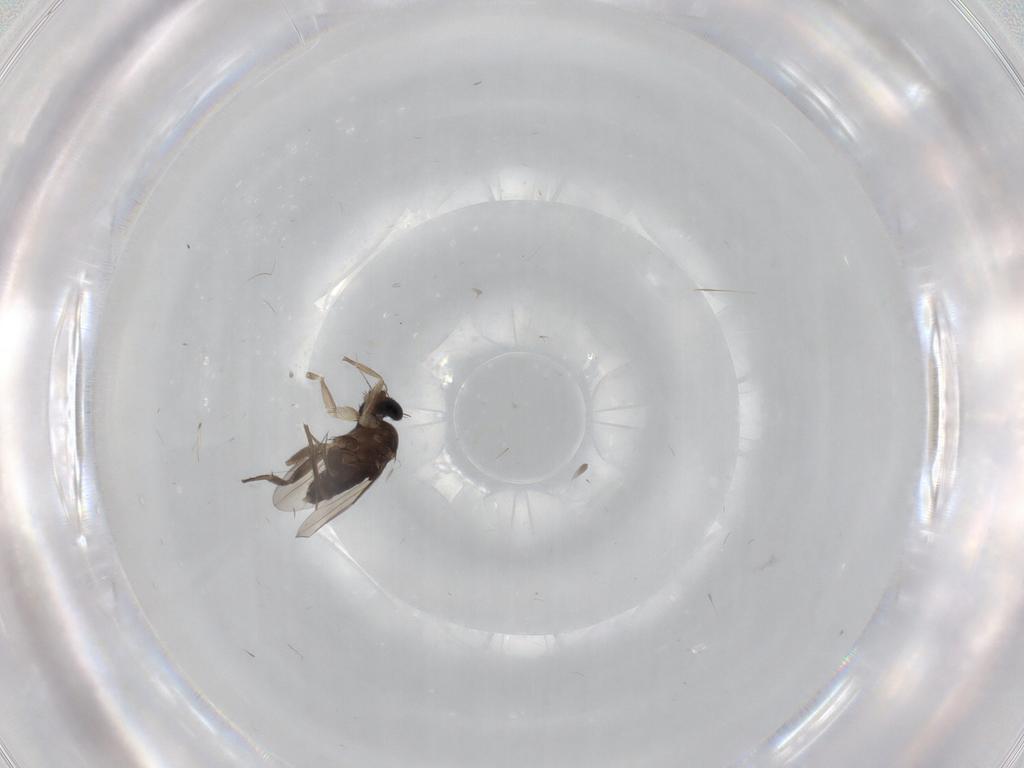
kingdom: Animalia
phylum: Arthropoda
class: Insecta
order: Diptera
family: Phoridae
